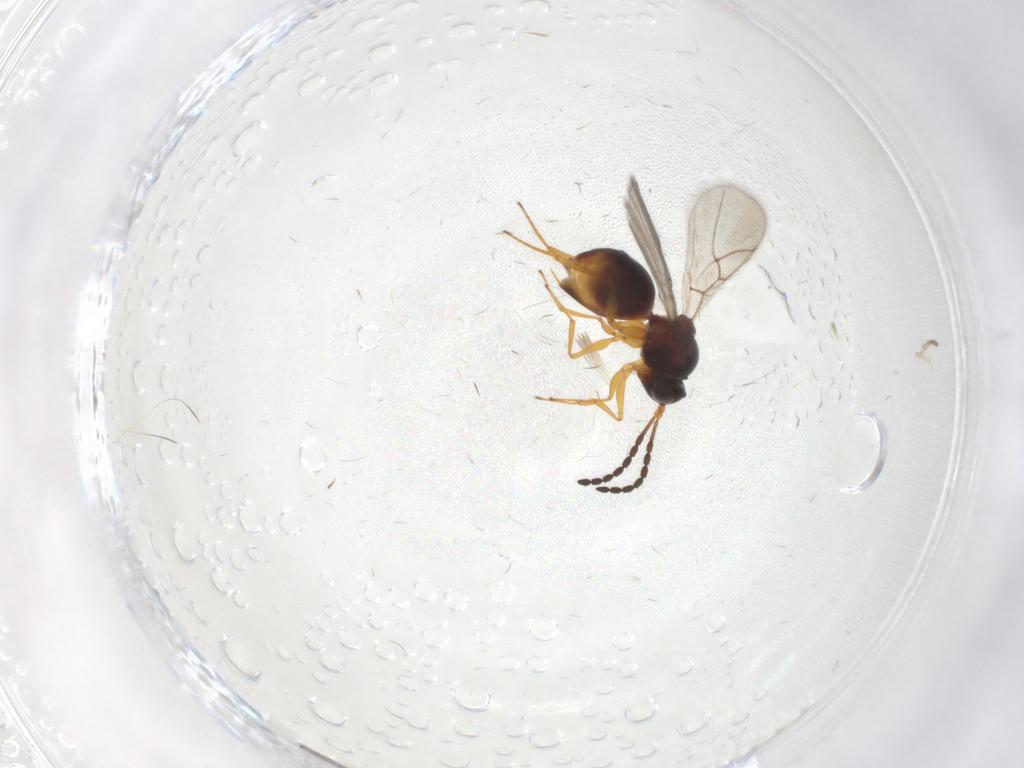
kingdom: Animalia
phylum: Arthropoda
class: Insecta
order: Hymenoptera
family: Figitidae
